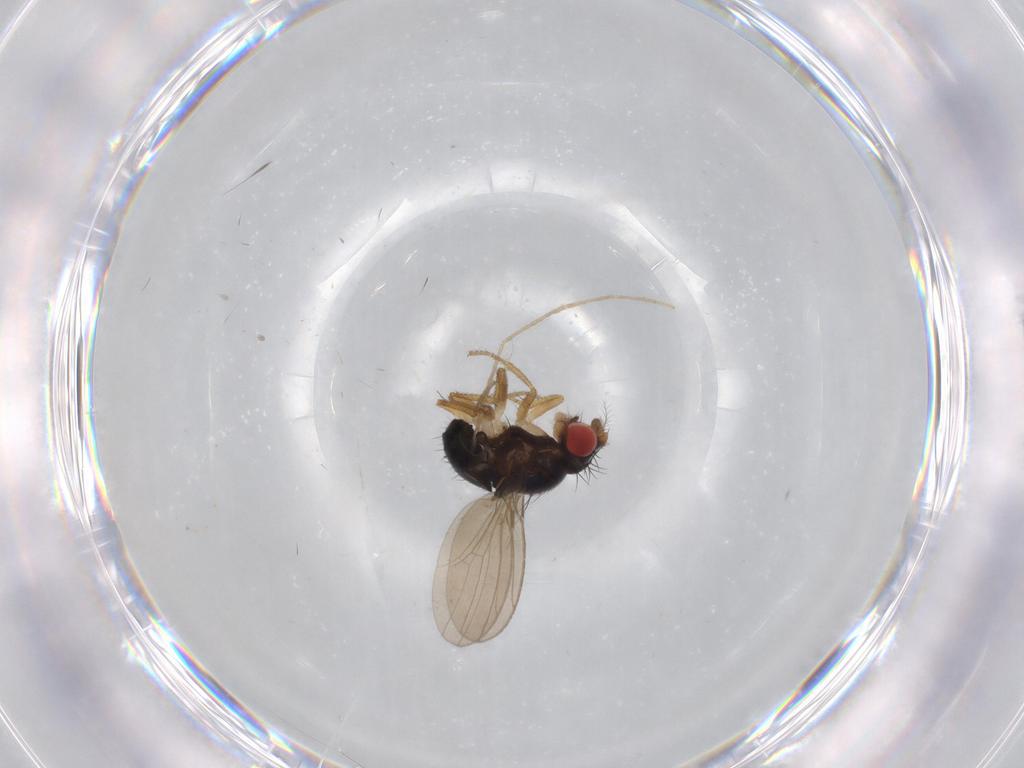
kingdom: Animalia
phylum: Arthropoda
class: Insecta
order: Diptera
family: Drosophilidae
